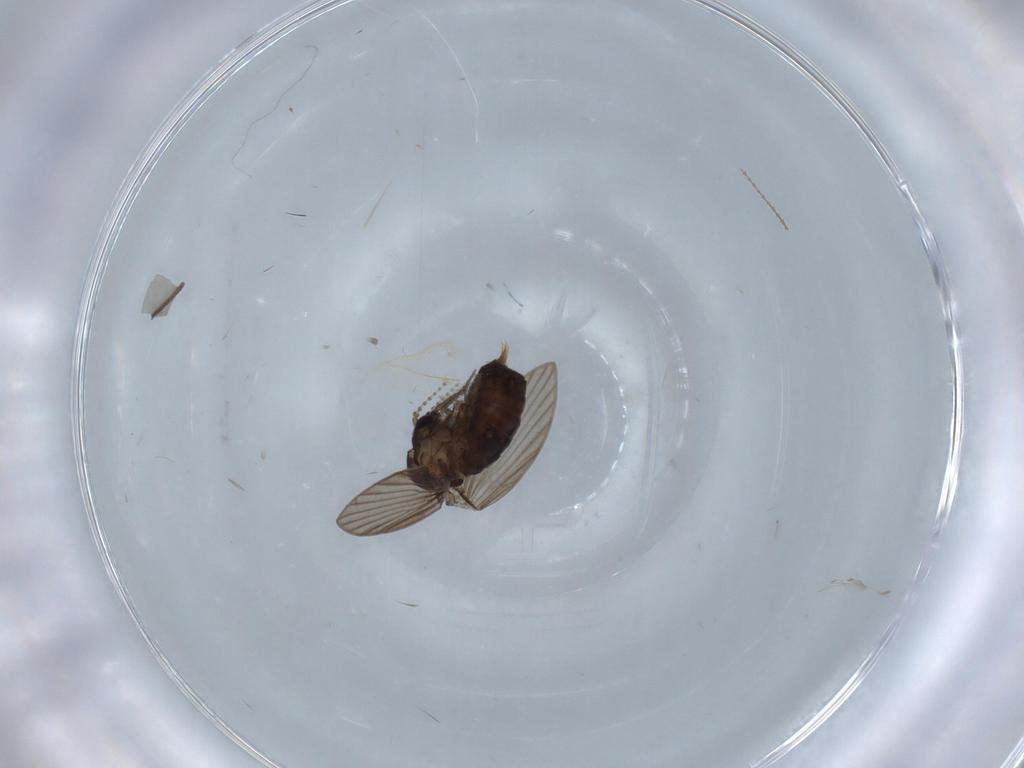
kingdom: Animalia
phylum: Arthropoda
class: Insecta
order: Diptera
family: Psychodidae
